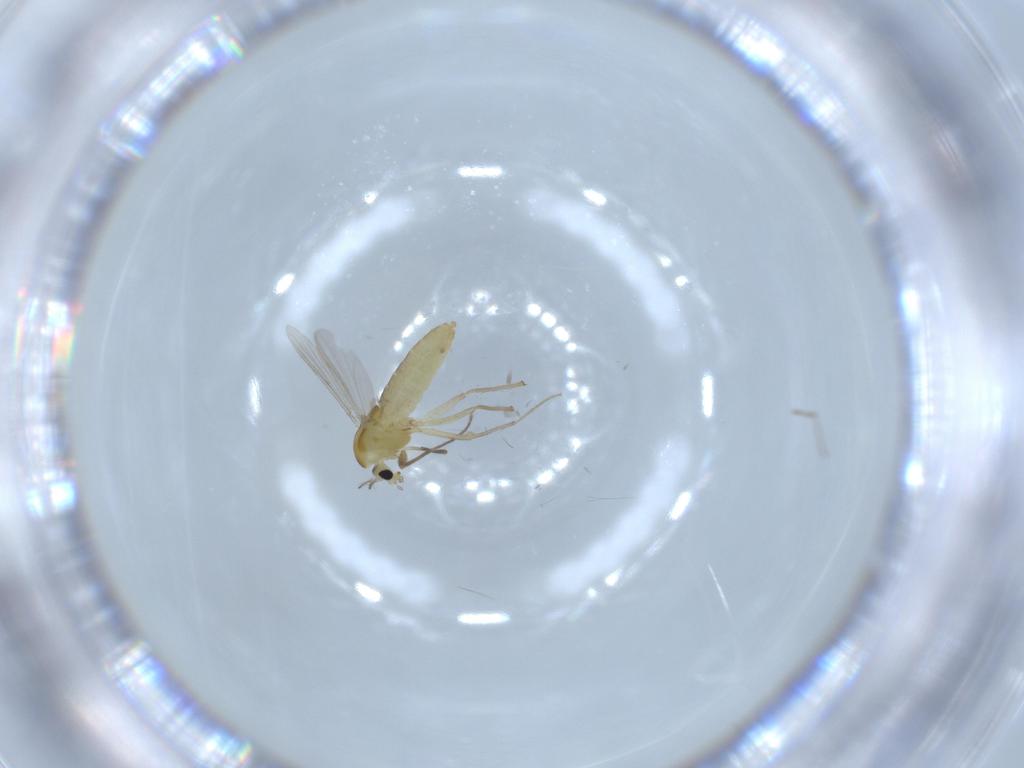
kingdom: Animalia
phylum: Arthropoda
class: Insecta
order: Diptera
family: Chironomidae
